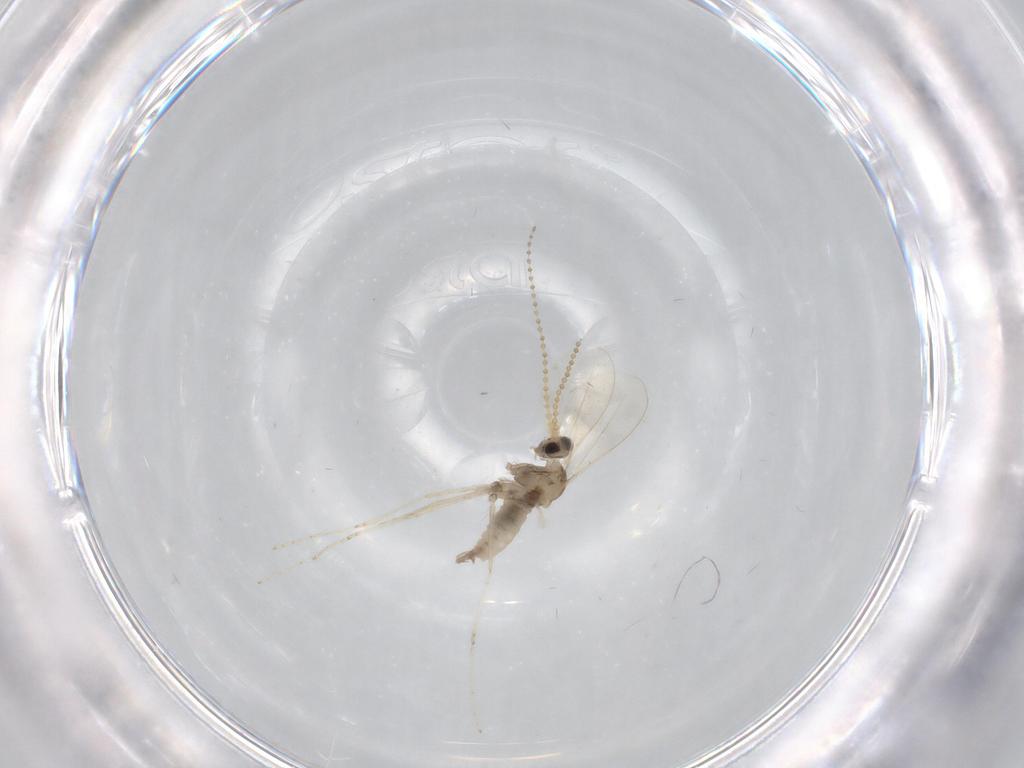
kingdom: Animalia
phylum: Arthropoda
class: Insecta
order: Diptera
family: Cecidomyiidae
